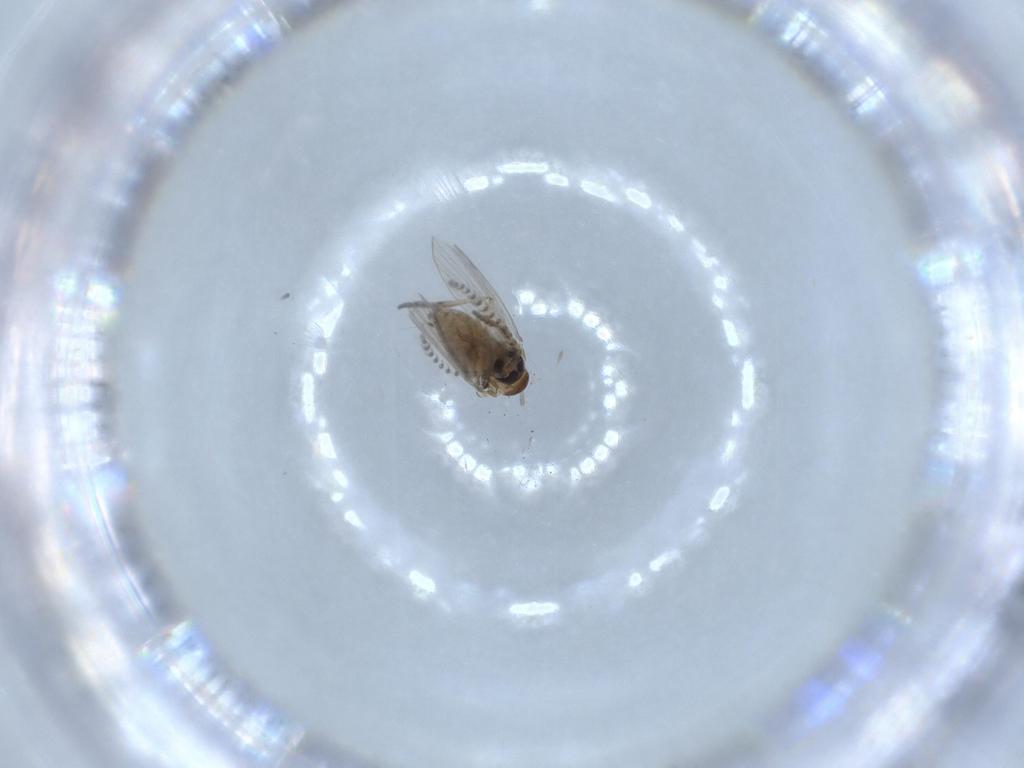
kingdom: Animalia
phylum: Arthropoda
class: Insecta
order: Diptera
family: Psychodidae
